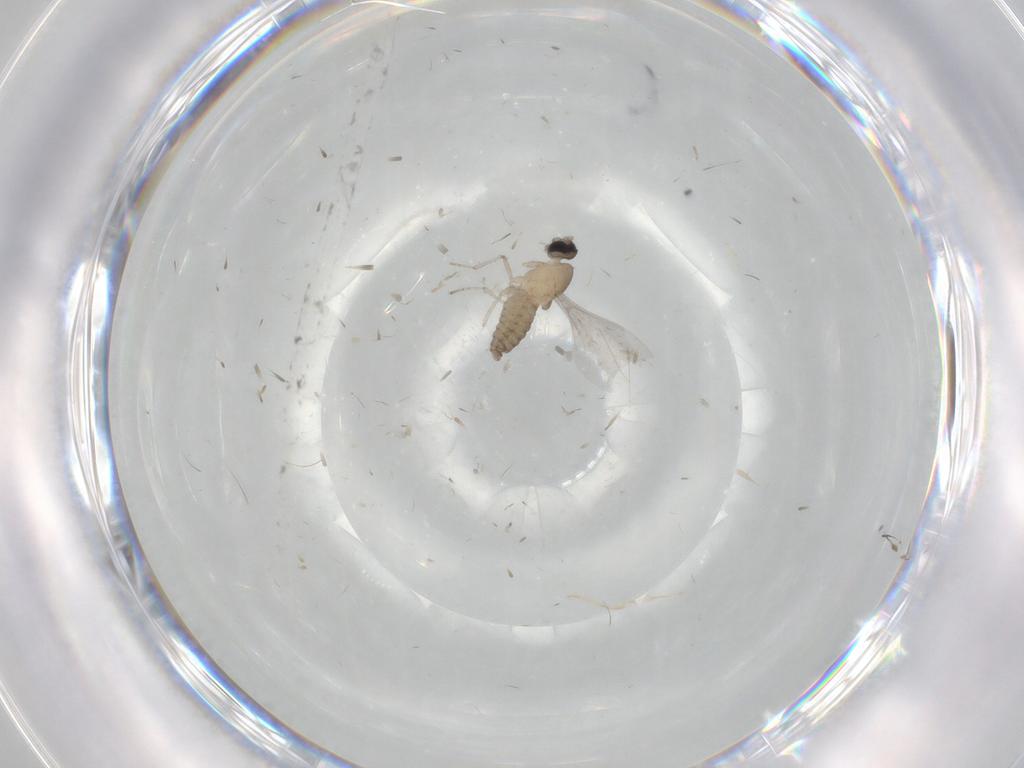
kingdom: Animalia
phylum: Arthropoda
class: Insecta
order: Diptera
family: Cecidomyiidae
